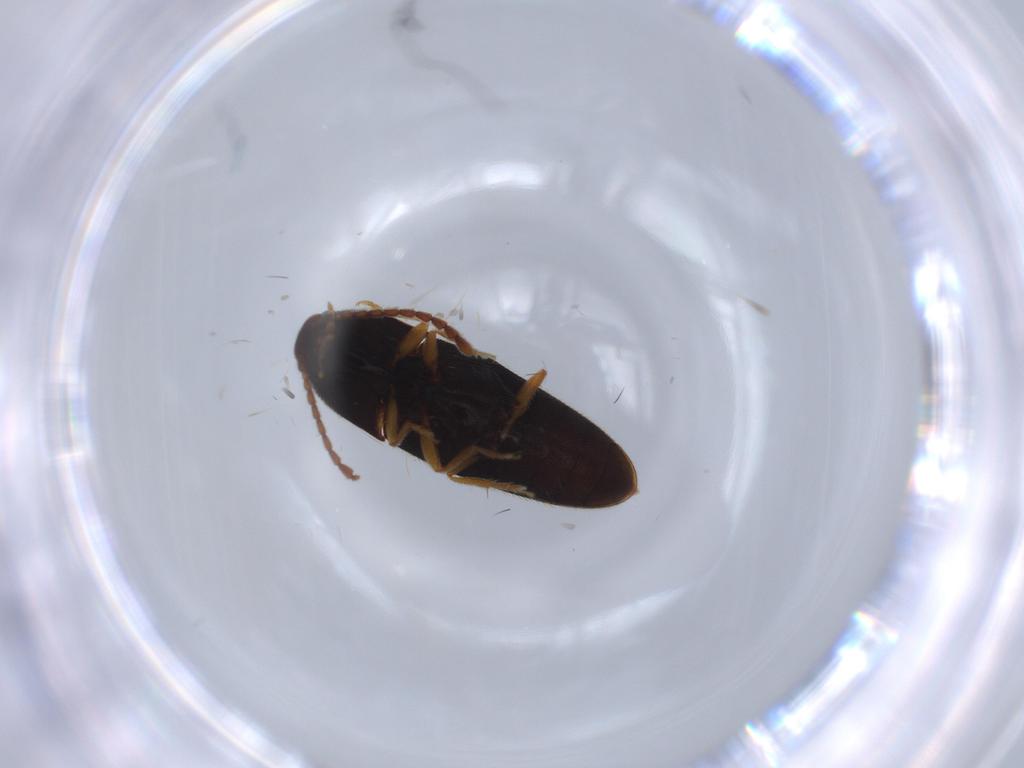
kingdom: Animalia
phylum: Arthropoda
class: Insecta
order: Coleoptera
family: Elateridae
